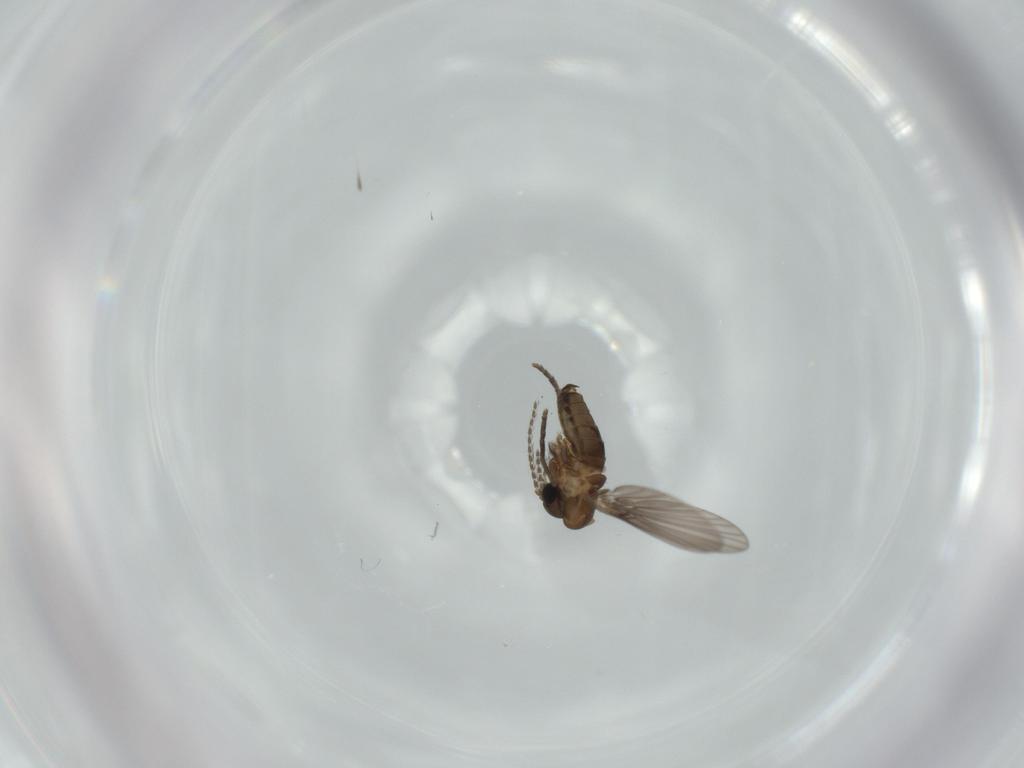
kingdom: Animalia
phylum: Arthropoda
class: Insecta
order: Diptera
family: Psychodidae
